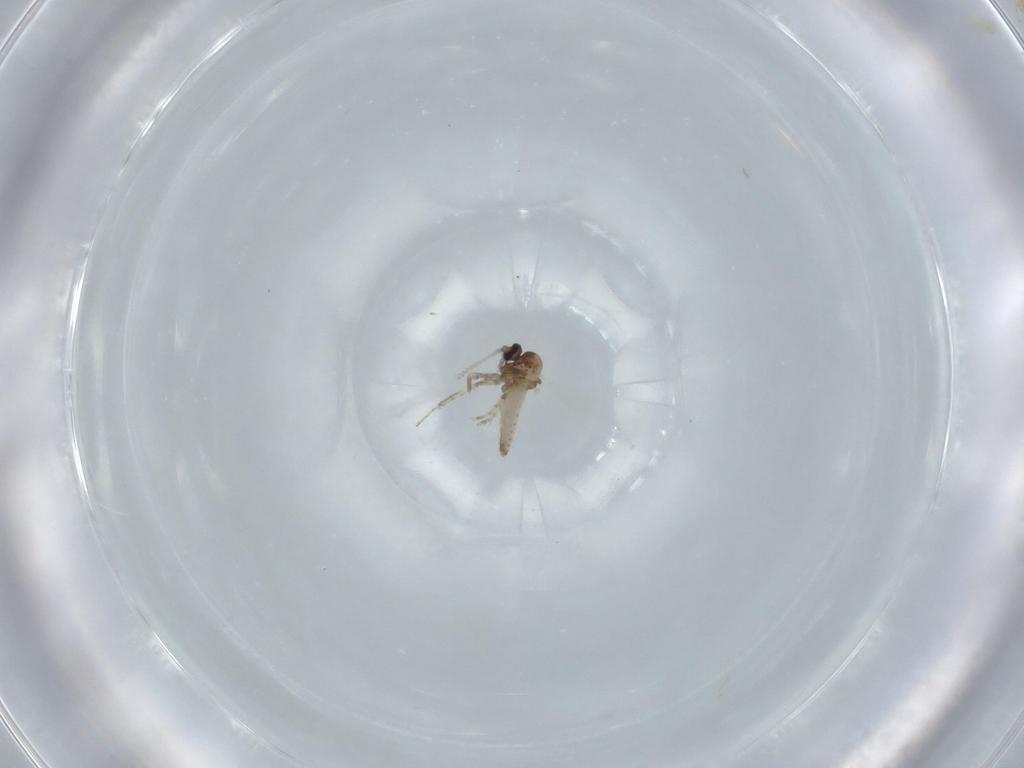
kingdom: Animalia
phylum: Arthropoda
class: Insecta
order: Diptera
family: Ceratopogonidae
